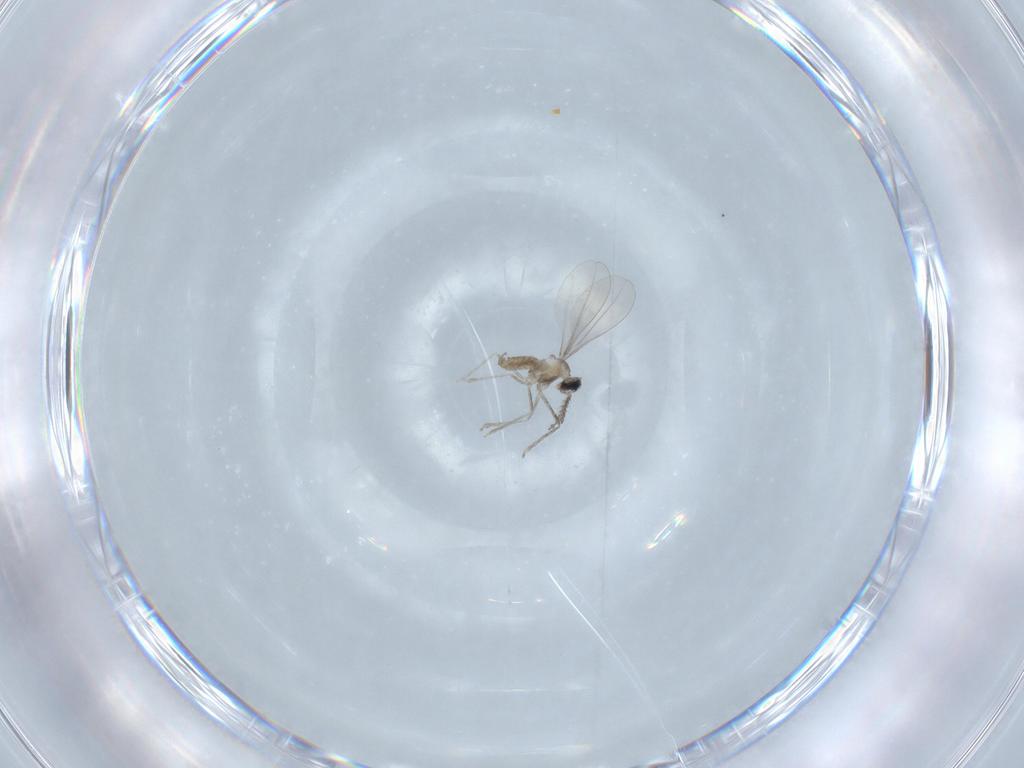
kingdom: Animalia
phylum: Arthropoda
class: Insecta
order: Diptera
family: Cecidomyiidae
